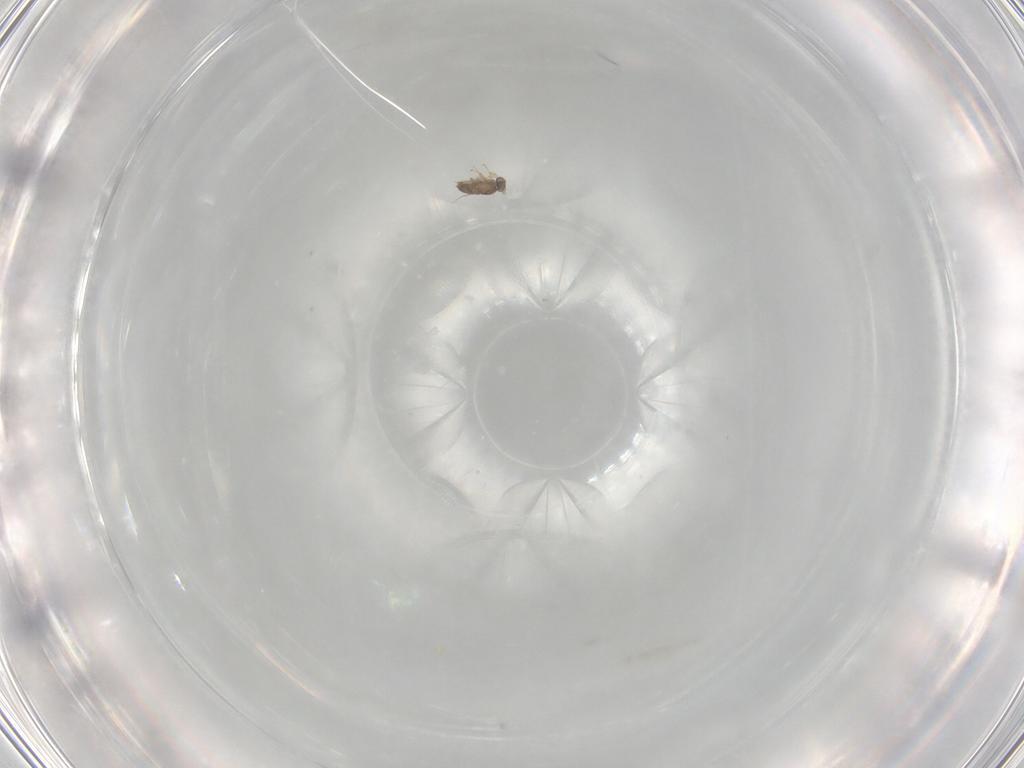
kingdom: Animalia
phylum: Arthropoda
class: Insecta
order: Hymenoptera
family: Mymaridae
